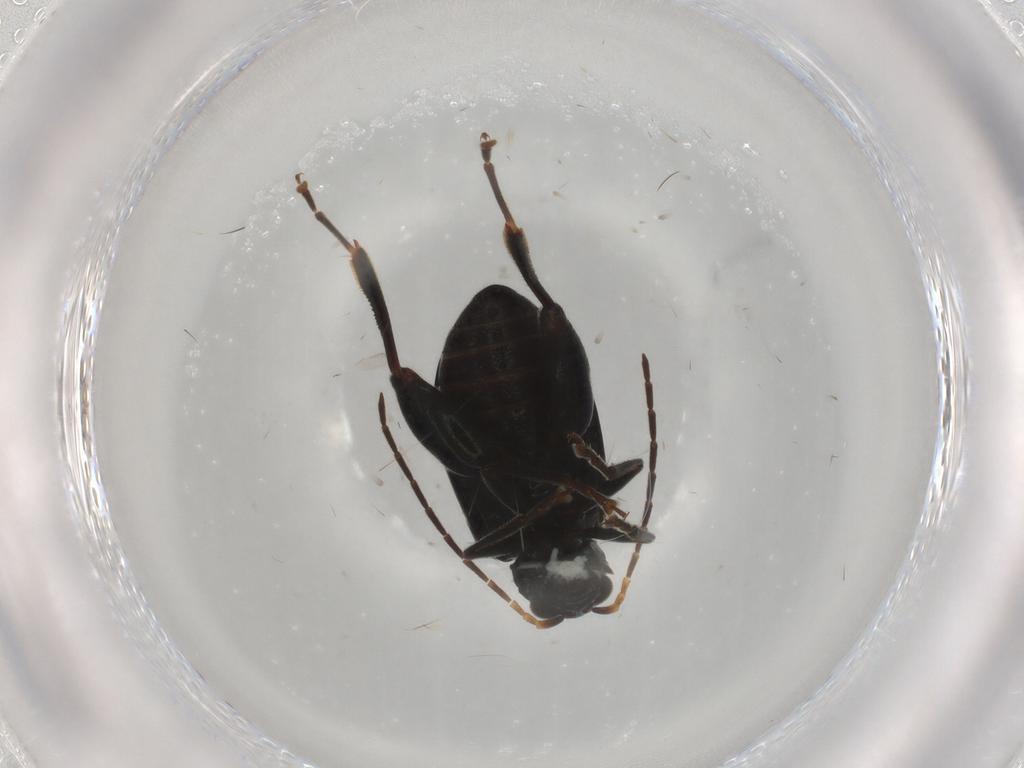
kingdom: Animalia
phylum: Arthropoda
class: Insecta
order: Coleoptera
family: Chrysomelidae
